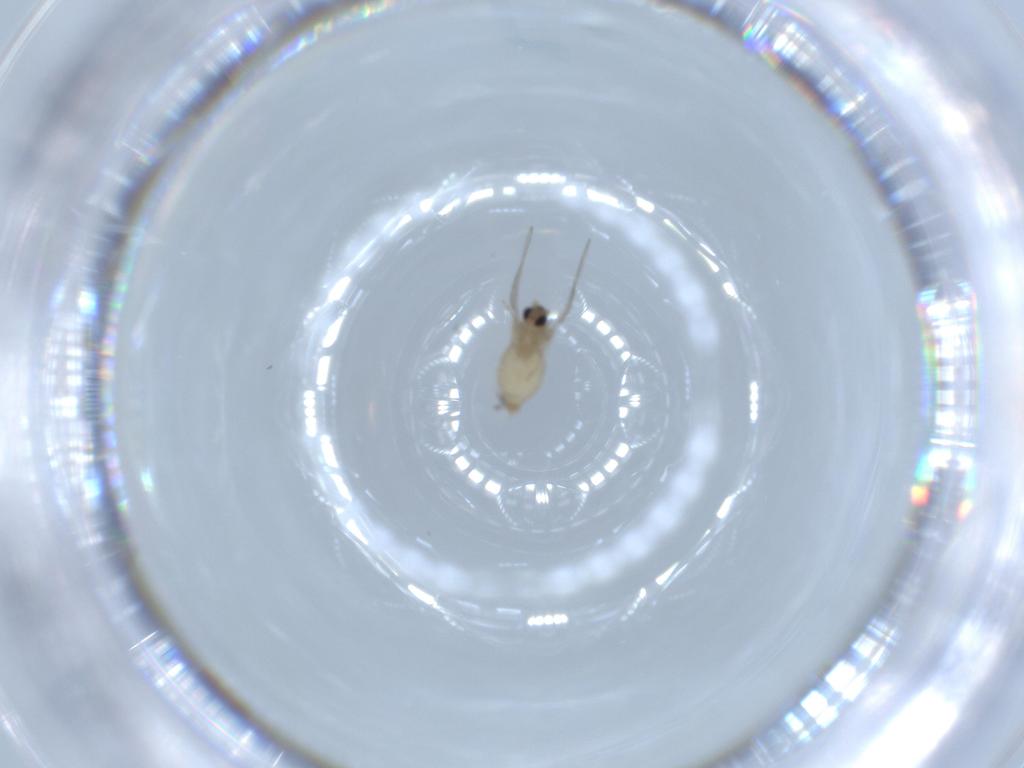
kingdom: Animalia
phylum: Arthropoda
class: Insecta
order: Diptera
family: Cecidomyiidae
